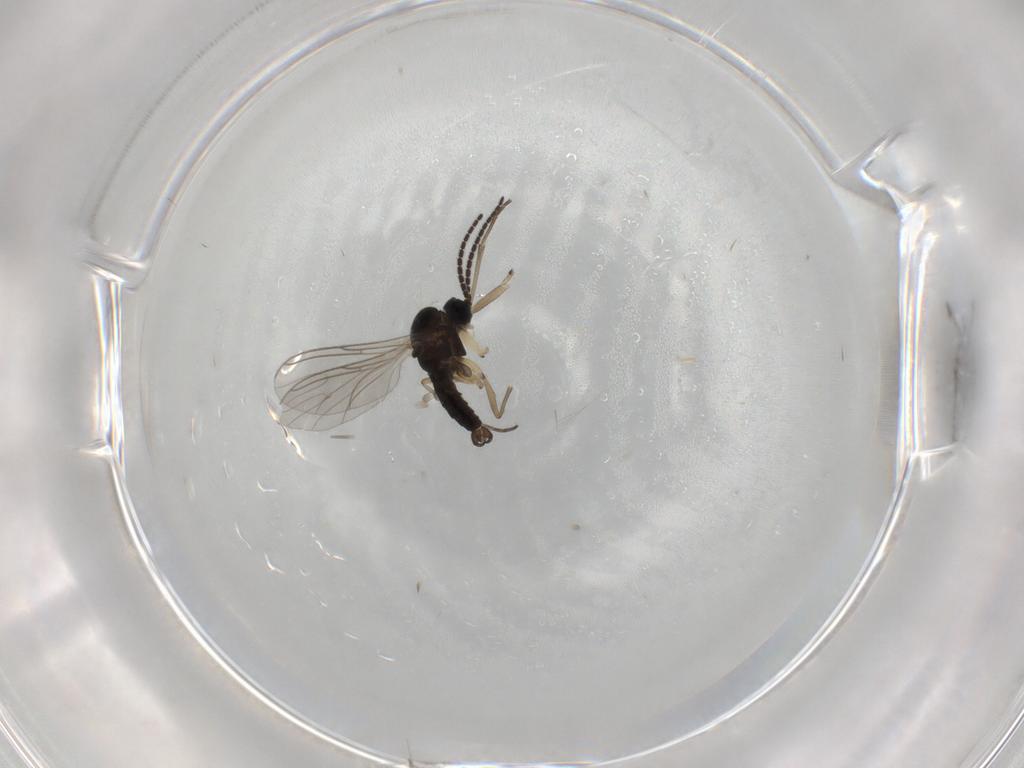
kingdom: Animalia
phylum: Arthropoda
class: Insecta
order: Diptera
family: Sciaridae
